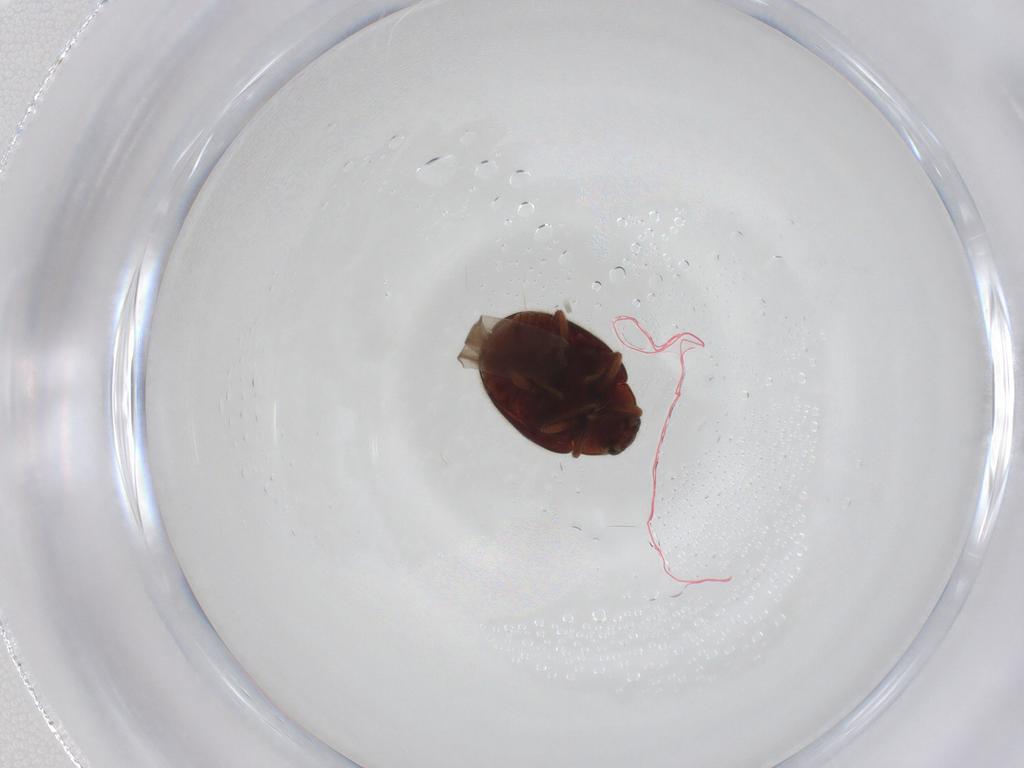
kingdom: Animalia
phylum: Arthropoda
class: Insecta
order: Coleoptera
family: Coccinellidae
